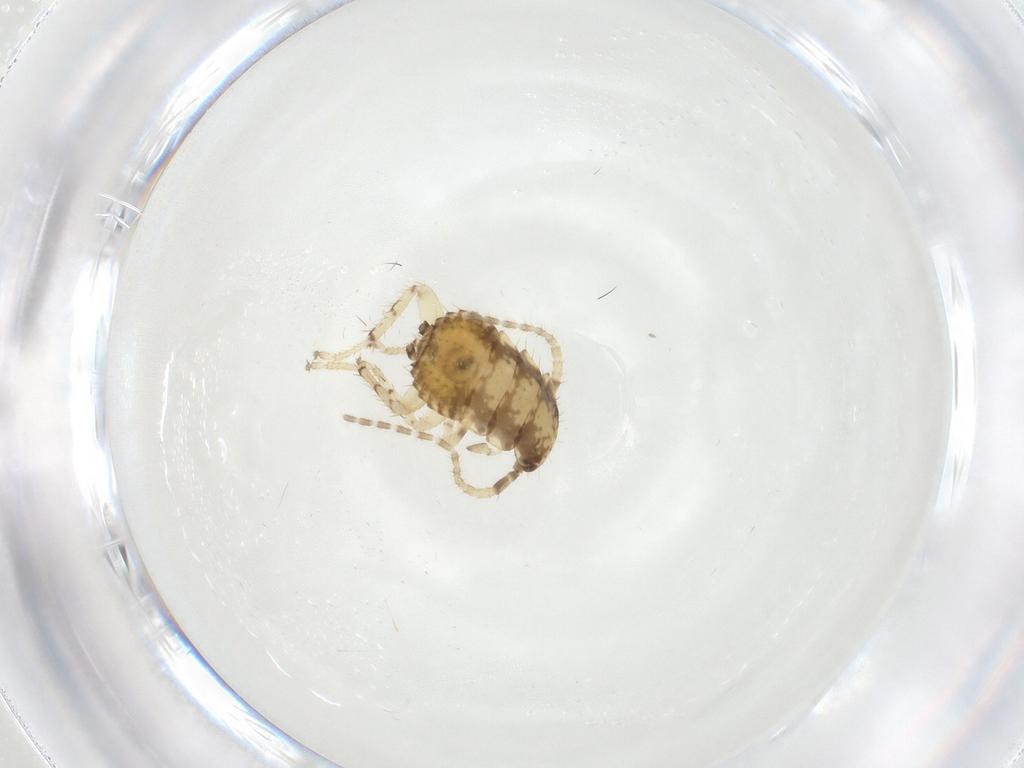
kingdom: Animalia
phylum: Arthropoda
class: Insecta
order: Blattodea
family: Ectobiidae
